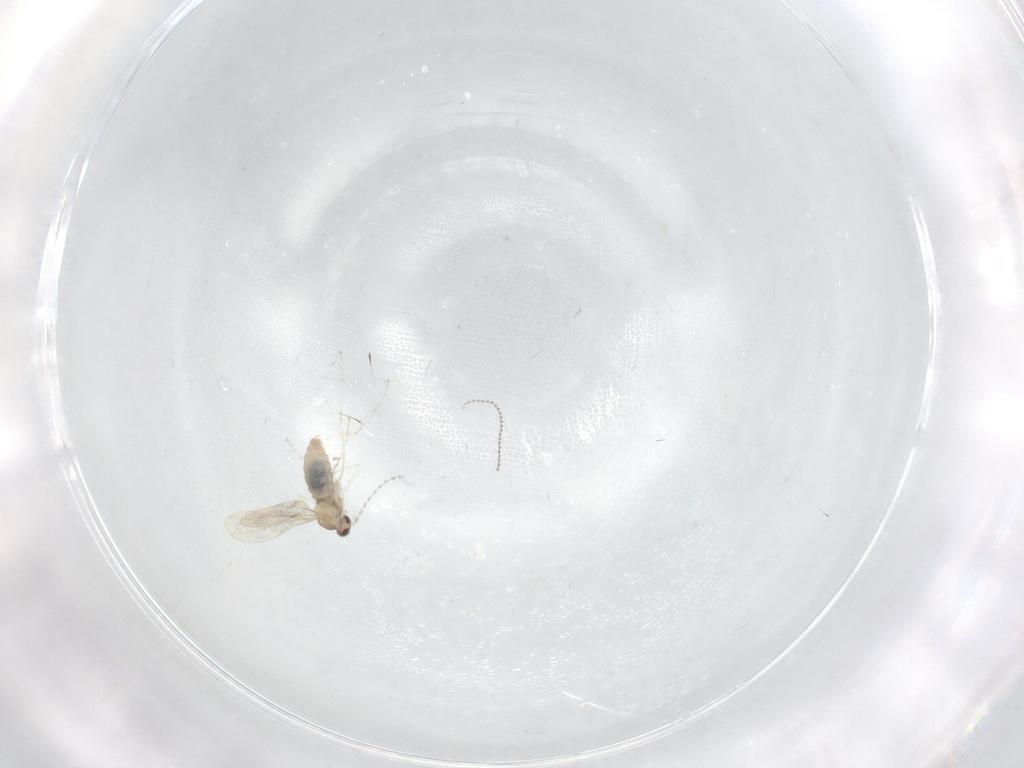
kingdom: Animalia
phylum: Arthropoda
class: Insecta
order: Diptera
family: Cecidomyiidae
